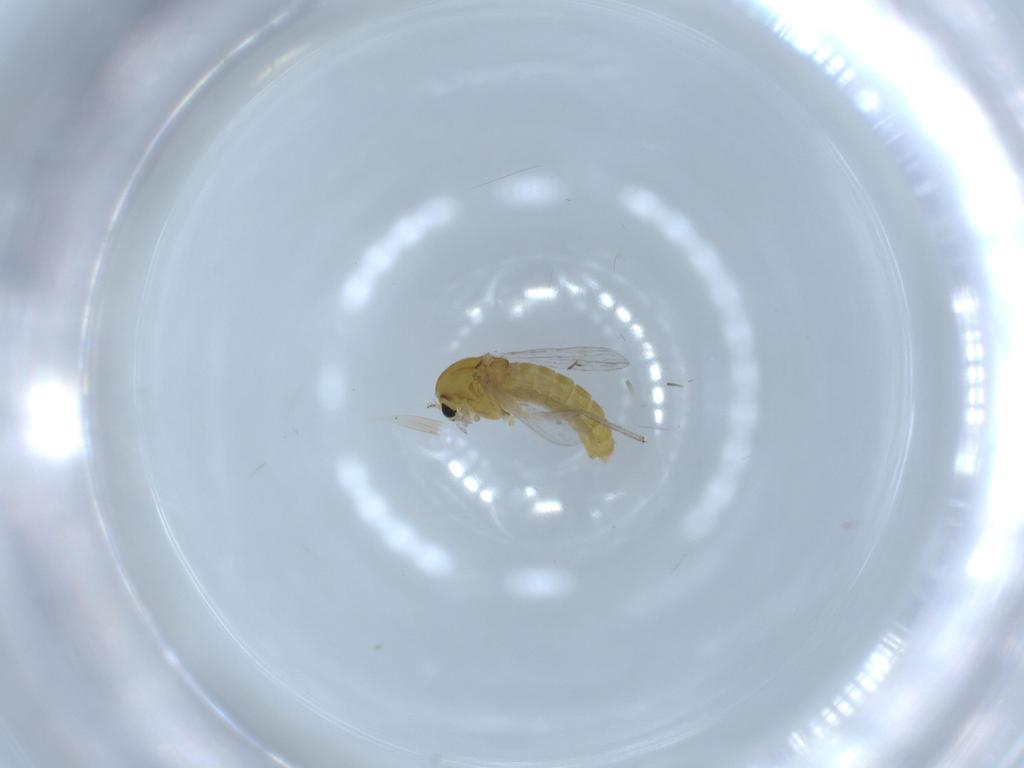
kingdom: Animalia
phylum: Arthropoda
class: Insecta
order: Diptera
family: Chironomidae
